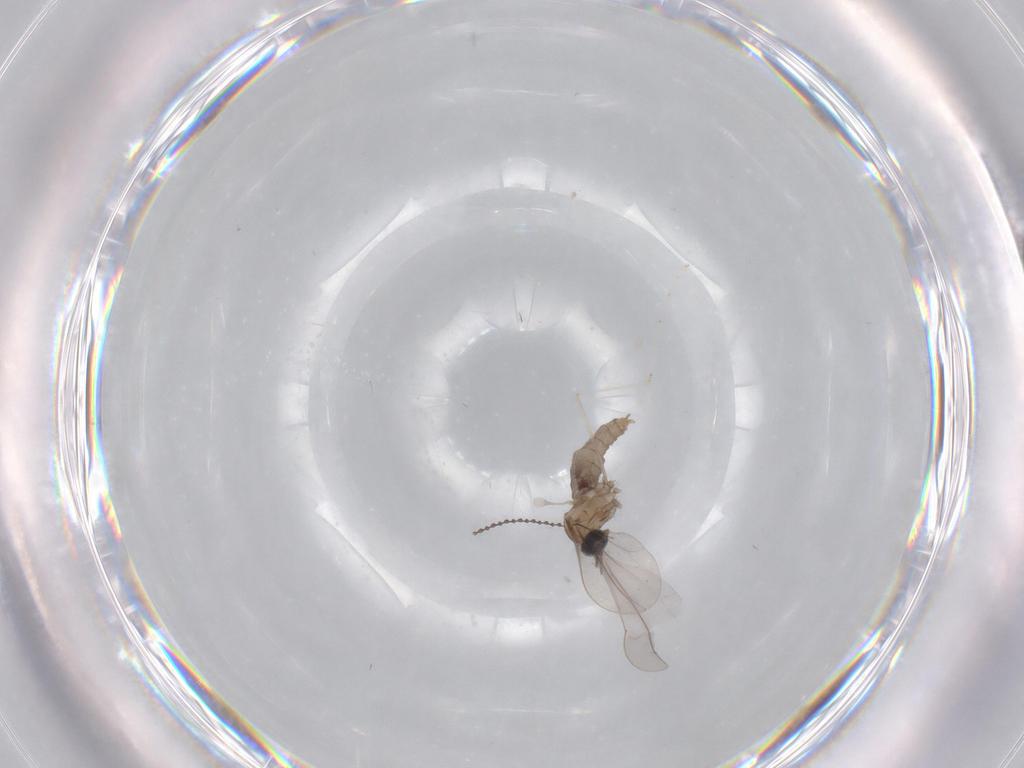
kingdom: Animalia
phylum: Arthropoda
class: Insecta
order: Diptera
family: Cecidomyiidae
